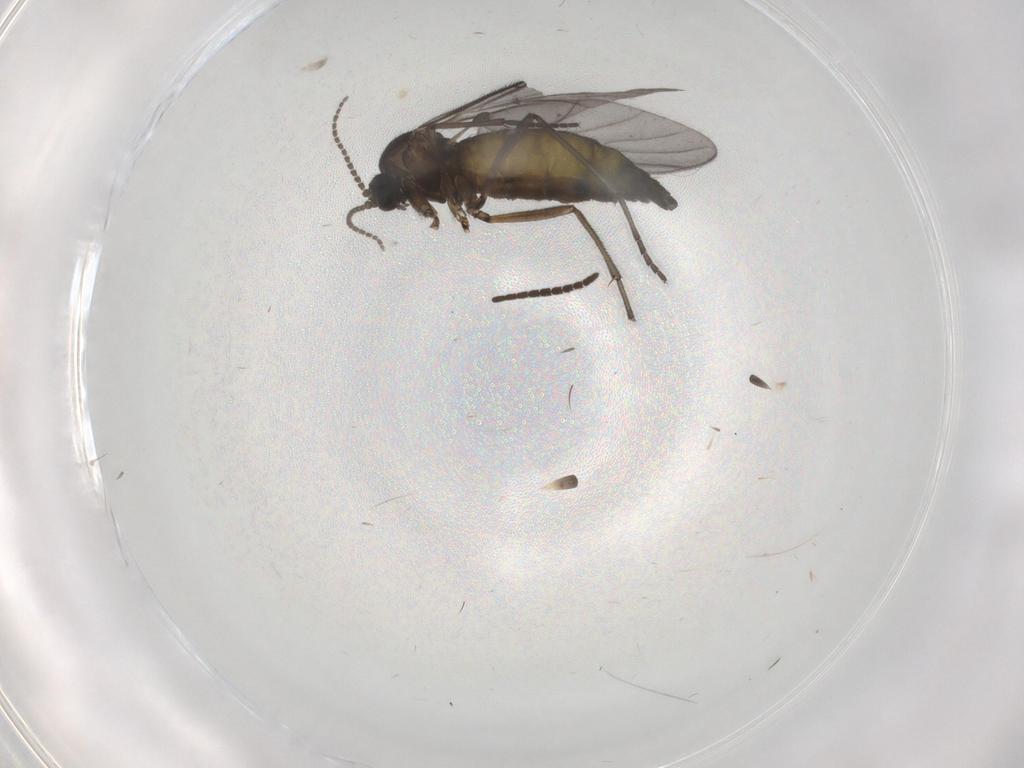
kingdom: Animalia
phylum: Arthropoda
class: Insecta
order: Diptera
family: Sciaridae
